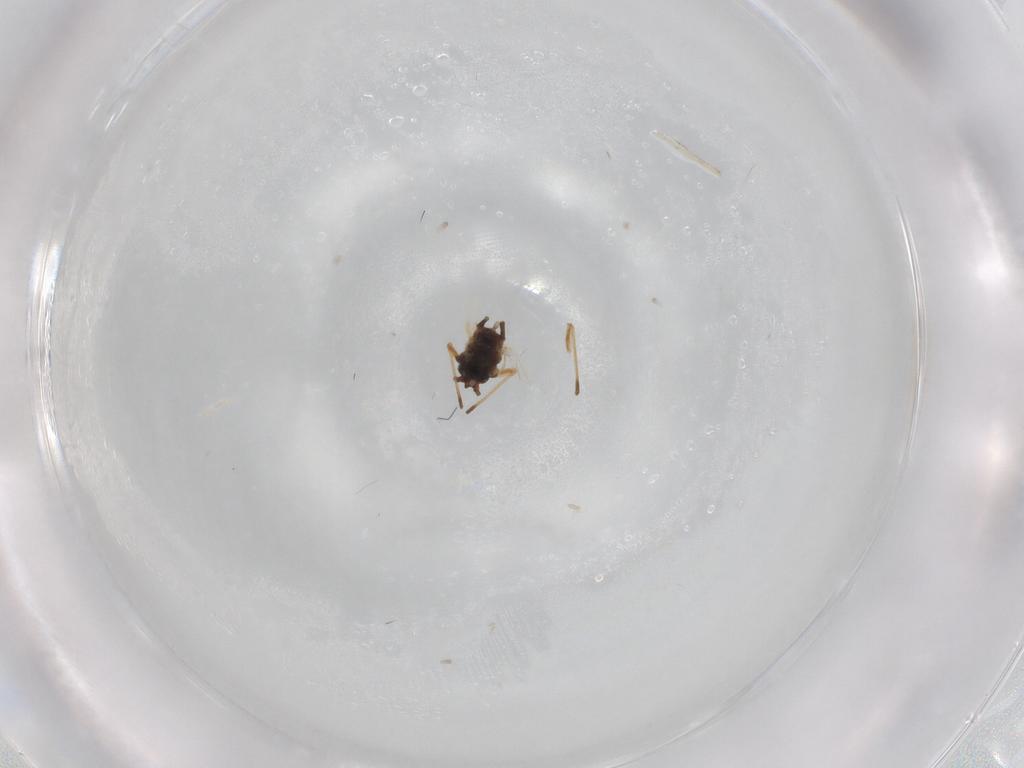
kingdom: Animalia
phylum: Arthropoda
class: Insecta
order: Hemiptera
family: Aphididae
